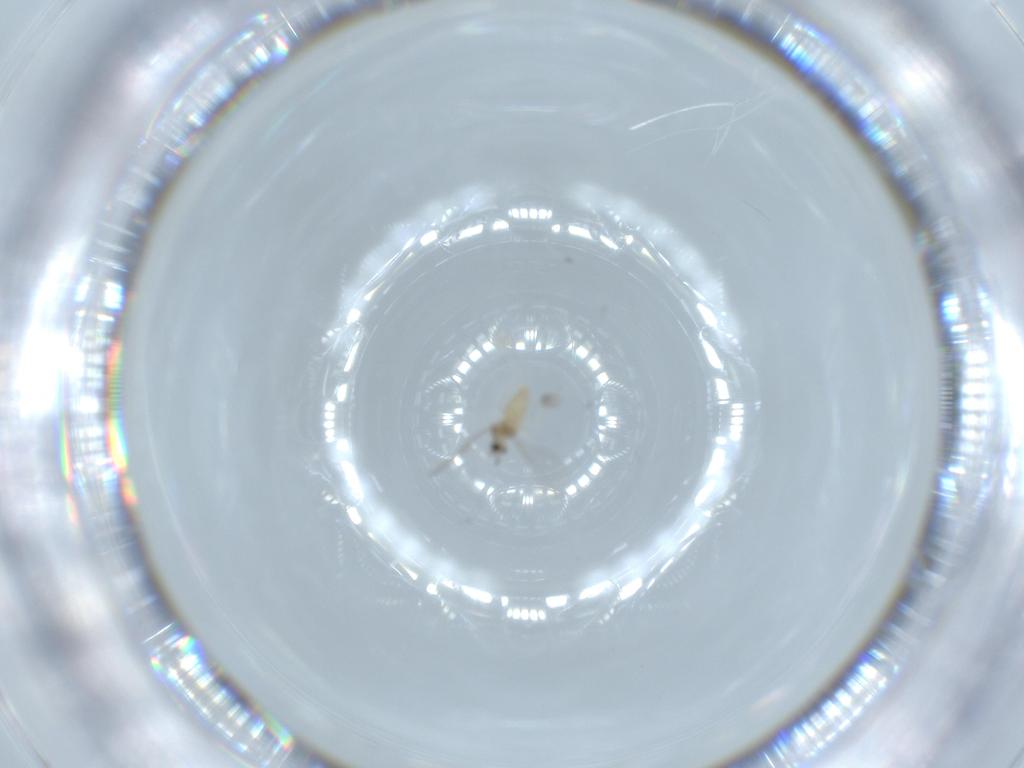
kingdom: Animalia
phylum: Arthropoda
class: Insecta
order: Diptera
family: Cecidomyiidae
